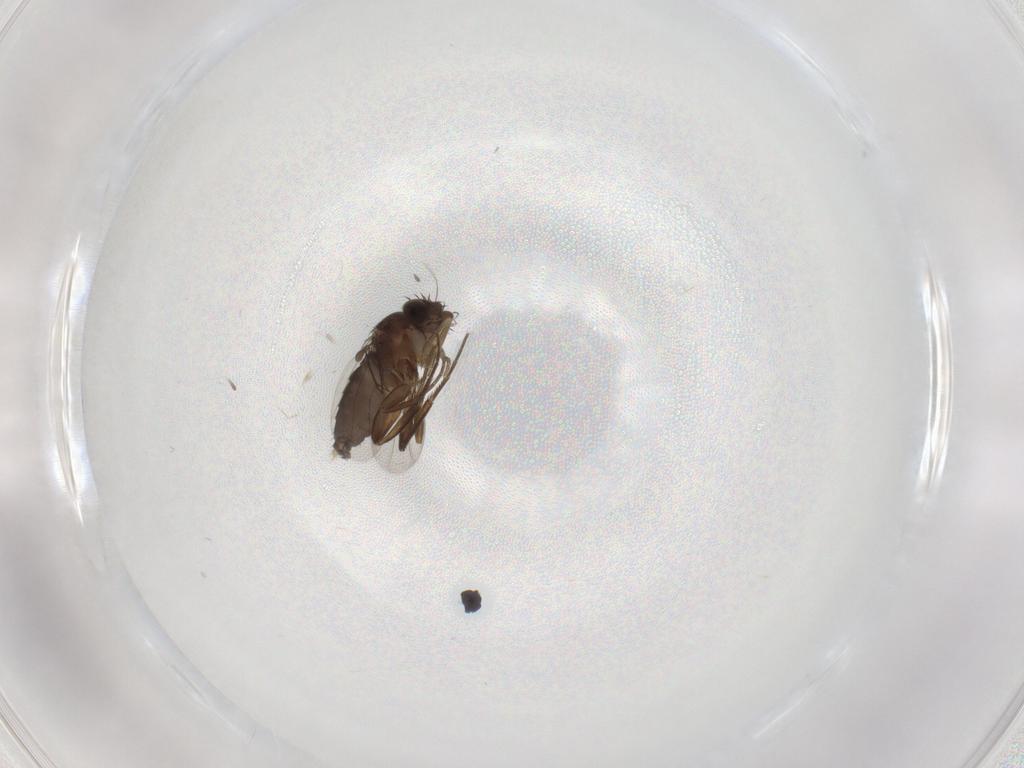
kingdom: Animalia
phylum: Arthropoda
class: Insecta
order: Diptera
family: Phoridae
